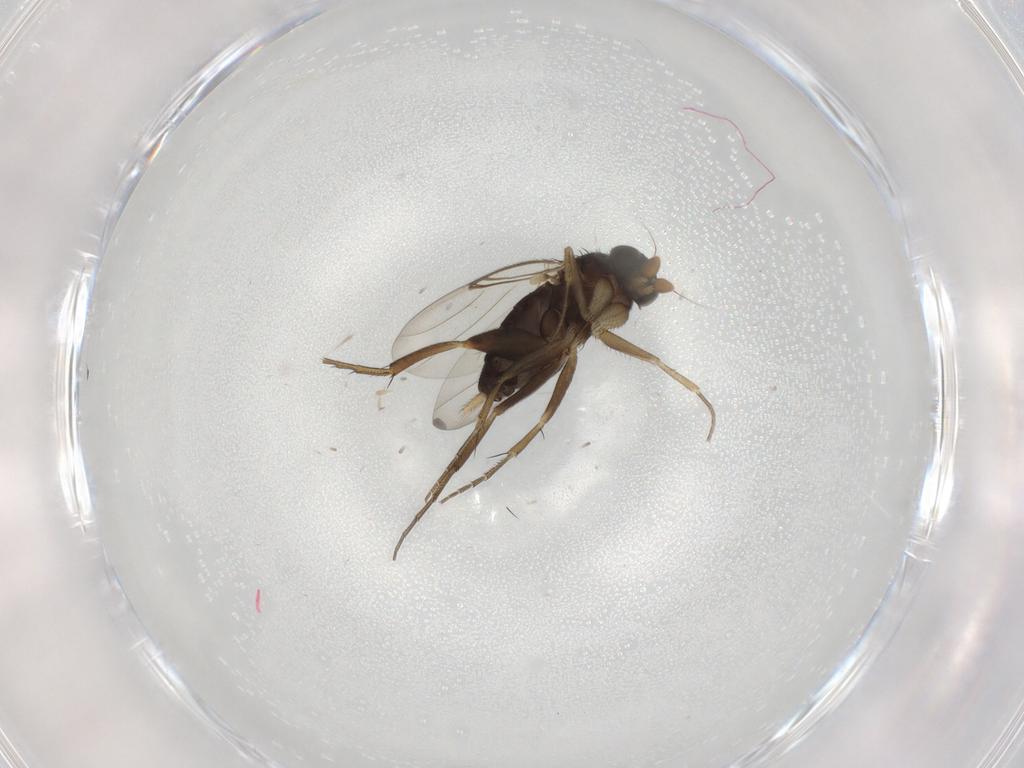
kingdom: Animalia
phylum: Arthropoda
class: Insecta
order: Diptera
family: Phoridae
